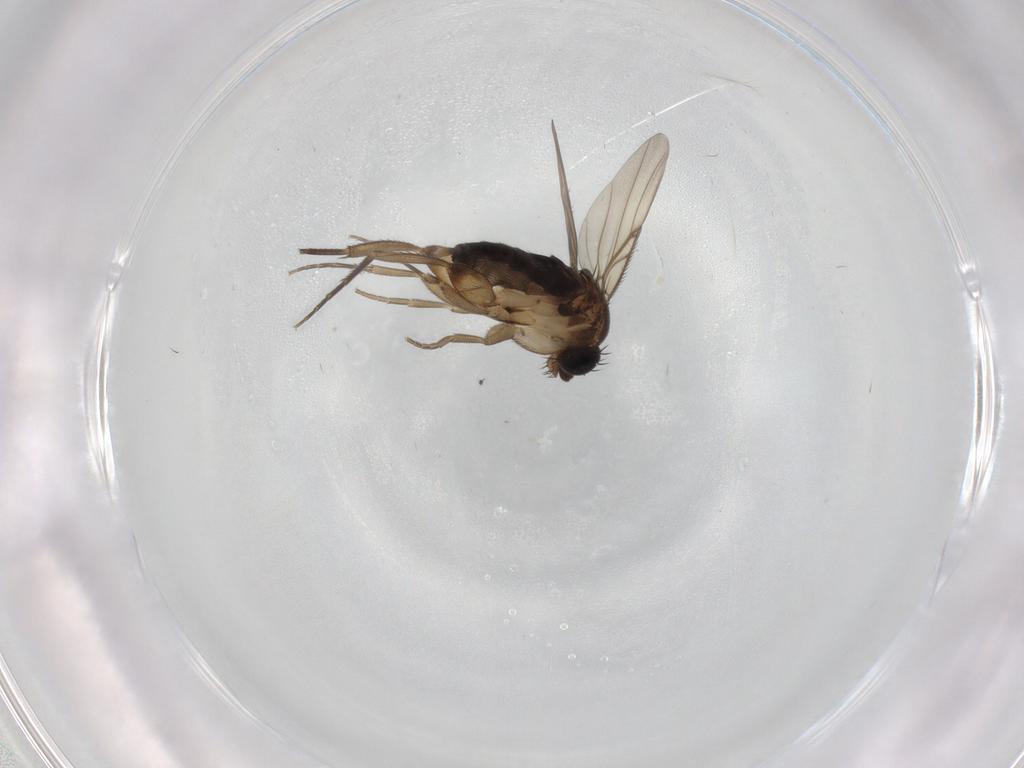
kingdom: Animalia
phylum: Arthropoda
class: Insecta
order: Diptera
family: Phoridae
